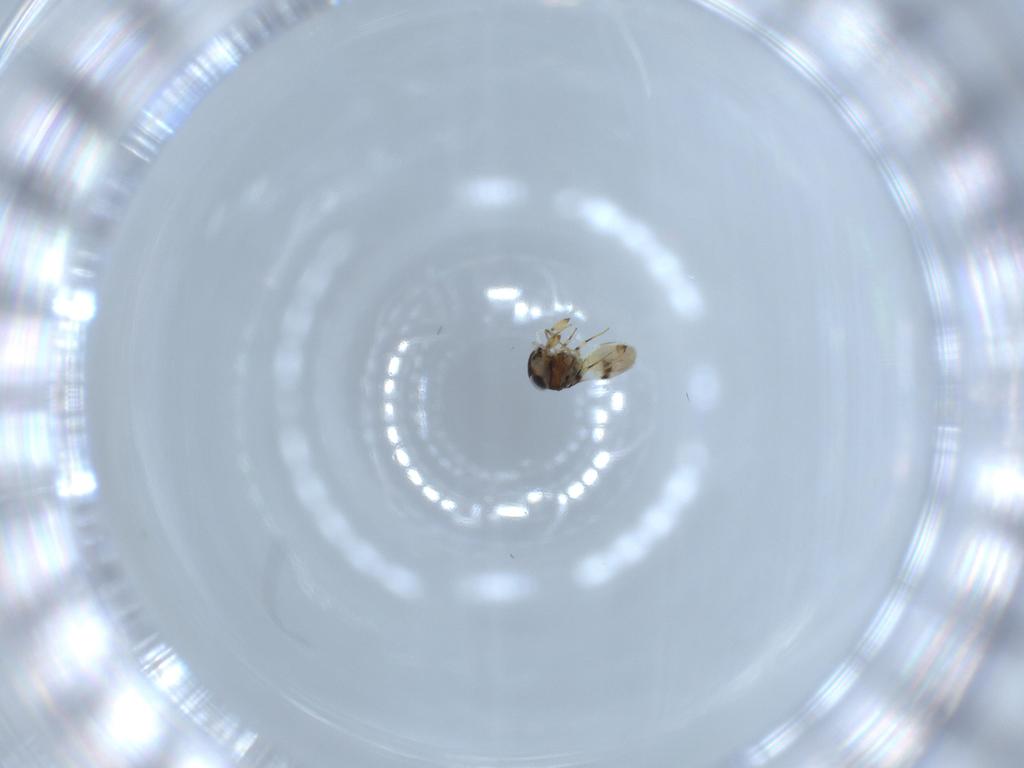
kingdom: Animalia
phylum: Arthropoda
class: Insecta
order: Hymenoptera
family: Scelionidae
